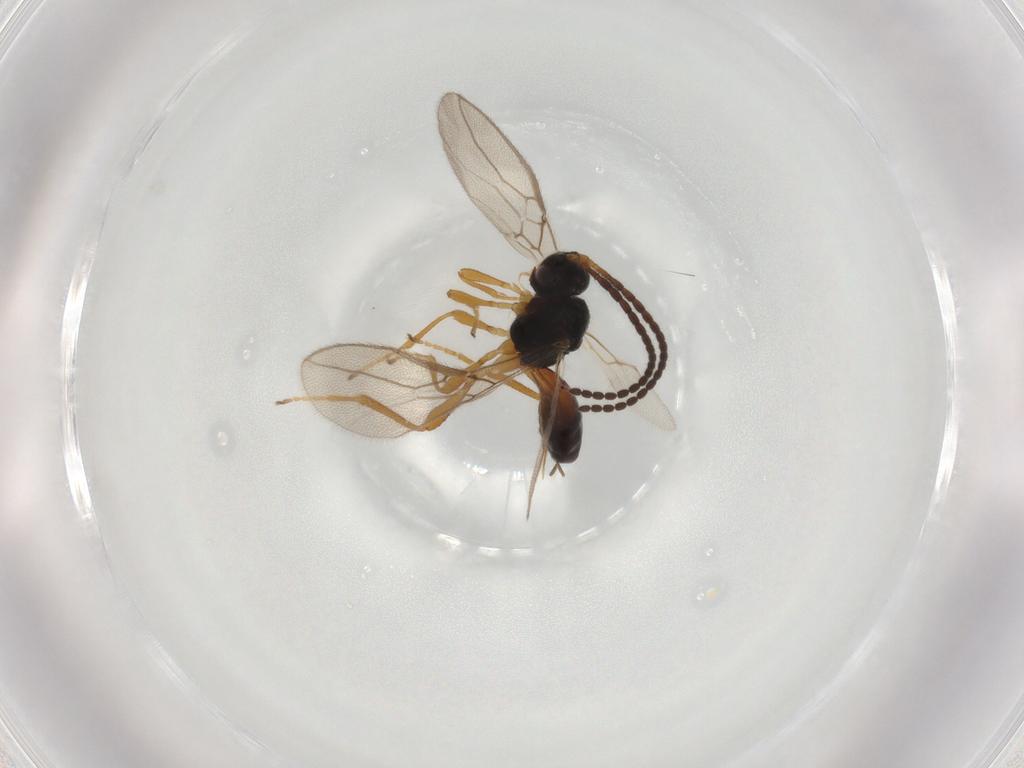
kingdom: Animalia
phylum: Arthropoda
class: Insecta
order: Hymenoptera
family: Braconidae
